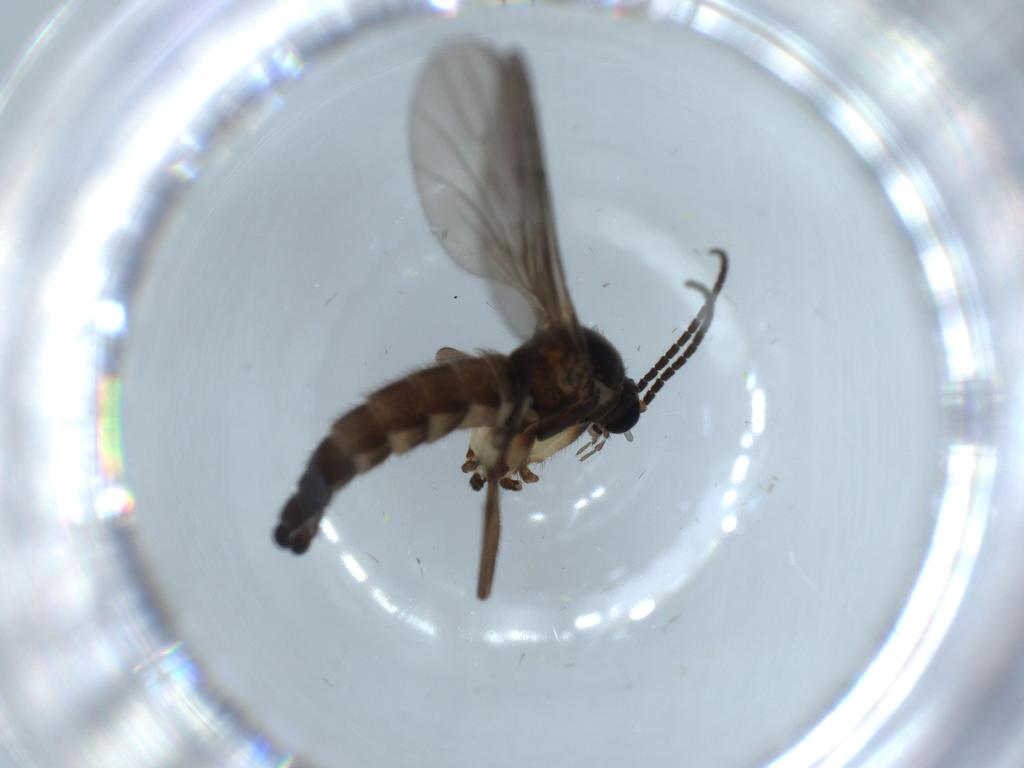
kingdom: Animalia
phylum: Arthropoda
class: Insecta
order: Diptera
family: Sciaridae
